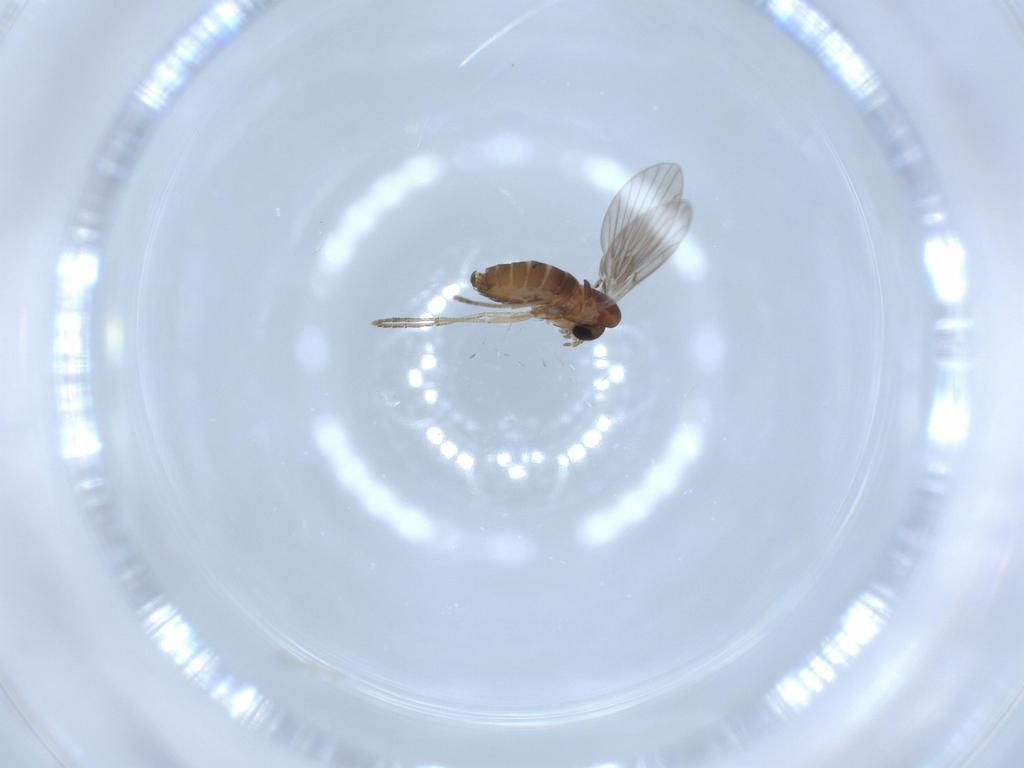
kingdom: Animalia
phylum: Arthropoda
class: Insecta
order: Diptera
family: Psychodidae
